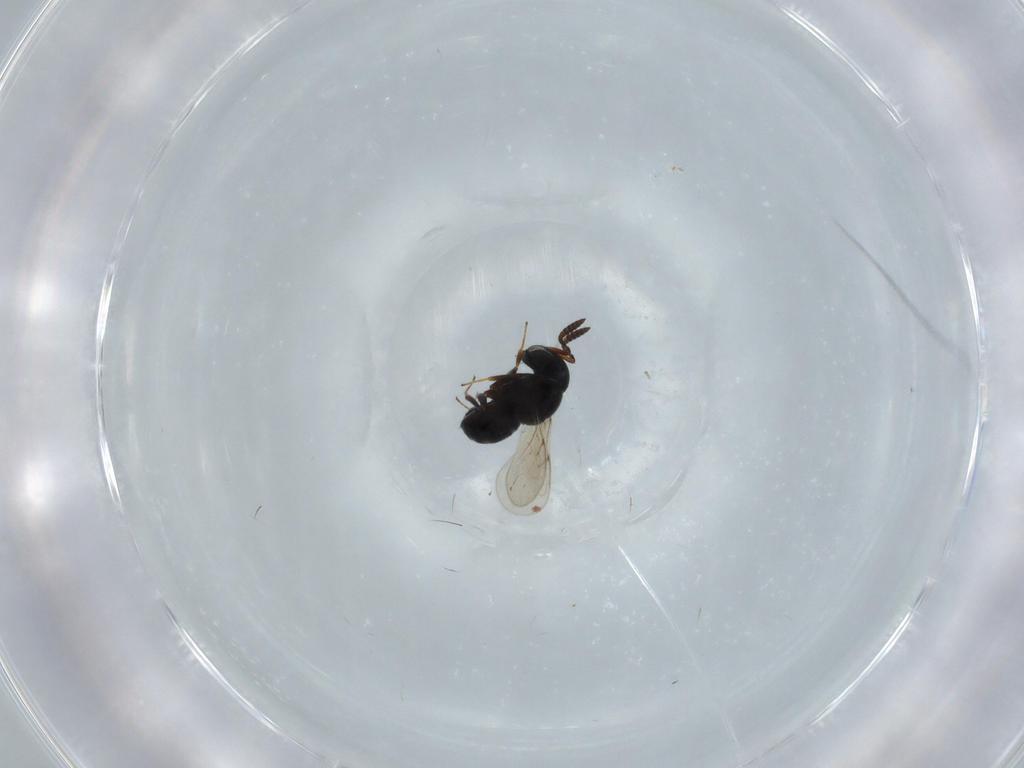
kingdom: Animalia
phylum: Arthropoda
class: Insecta
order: Hymenoptera
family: Scelionidae
